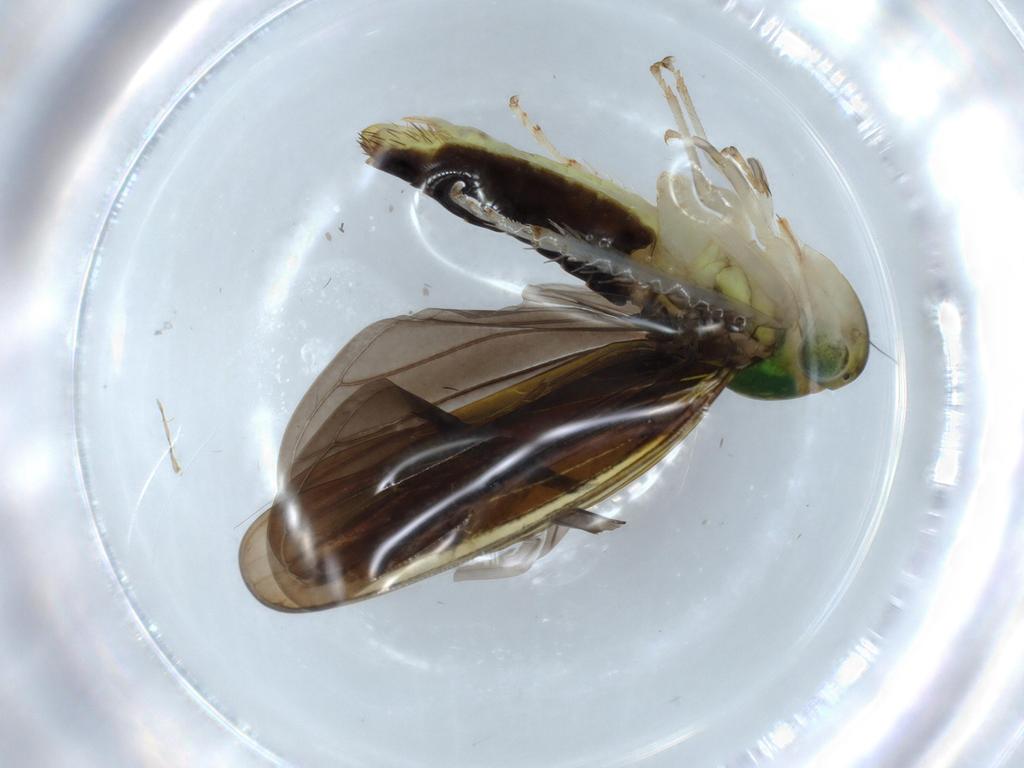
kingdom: Animalia
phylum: Arthropoda
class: Insecta
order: Hemiptera
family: Cicadellidae
